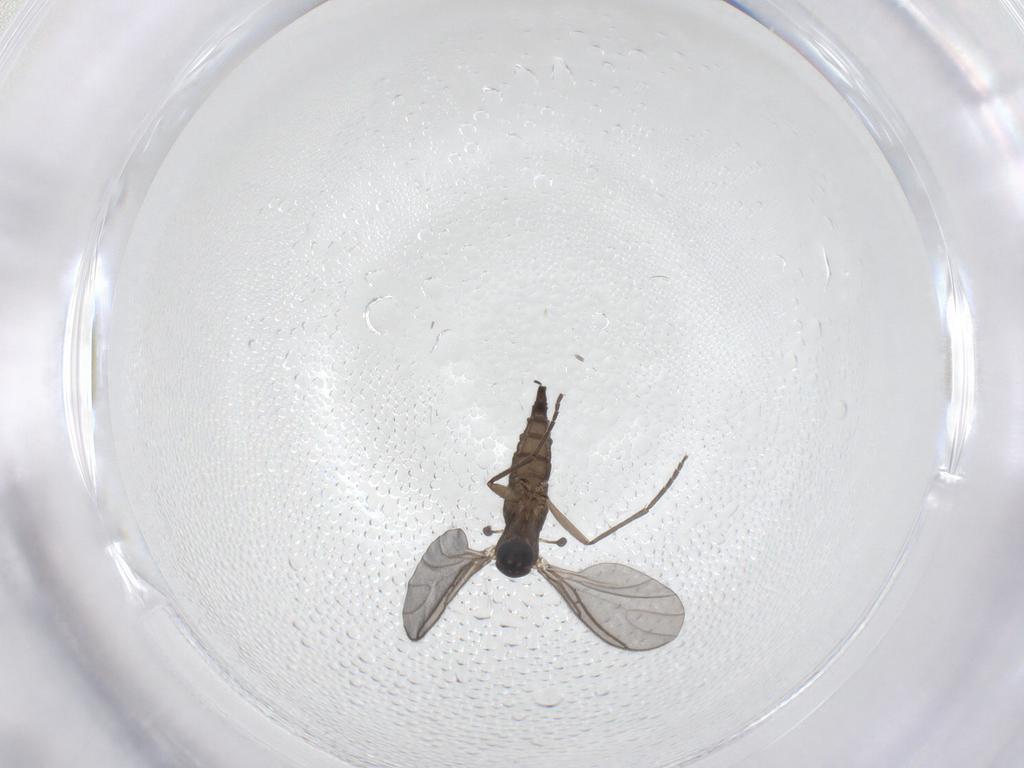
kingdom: Animalia
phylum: Arthropoda
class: Insecta
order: Diptera
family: Sciaridae
